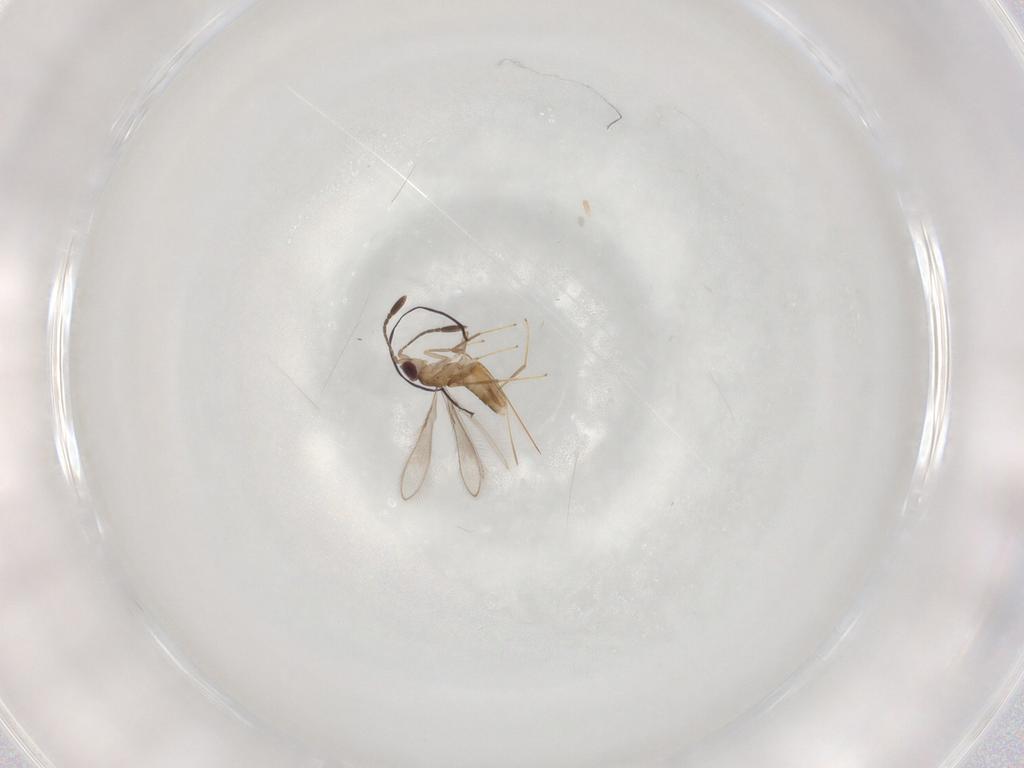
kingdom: Animalia
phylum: Arthropoda
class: Insecta
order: Hymenoptera
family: Mymaridae
